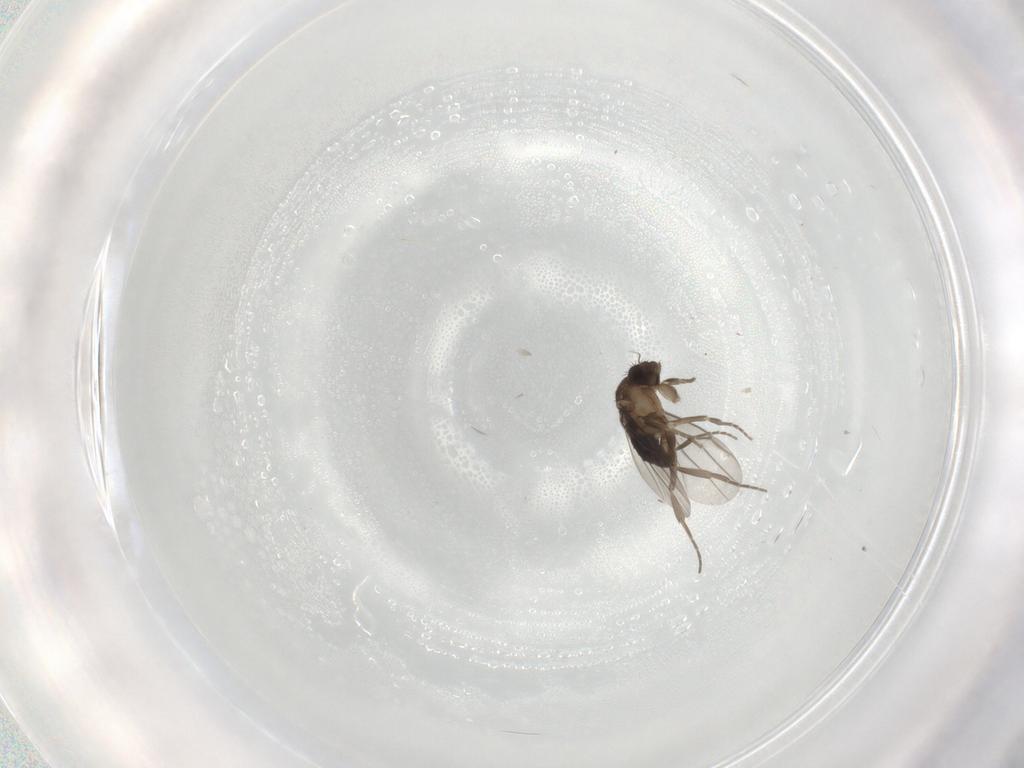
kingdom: Animalia
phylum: Arthropoda
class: Insecta
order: Diptera
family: Phoridae
